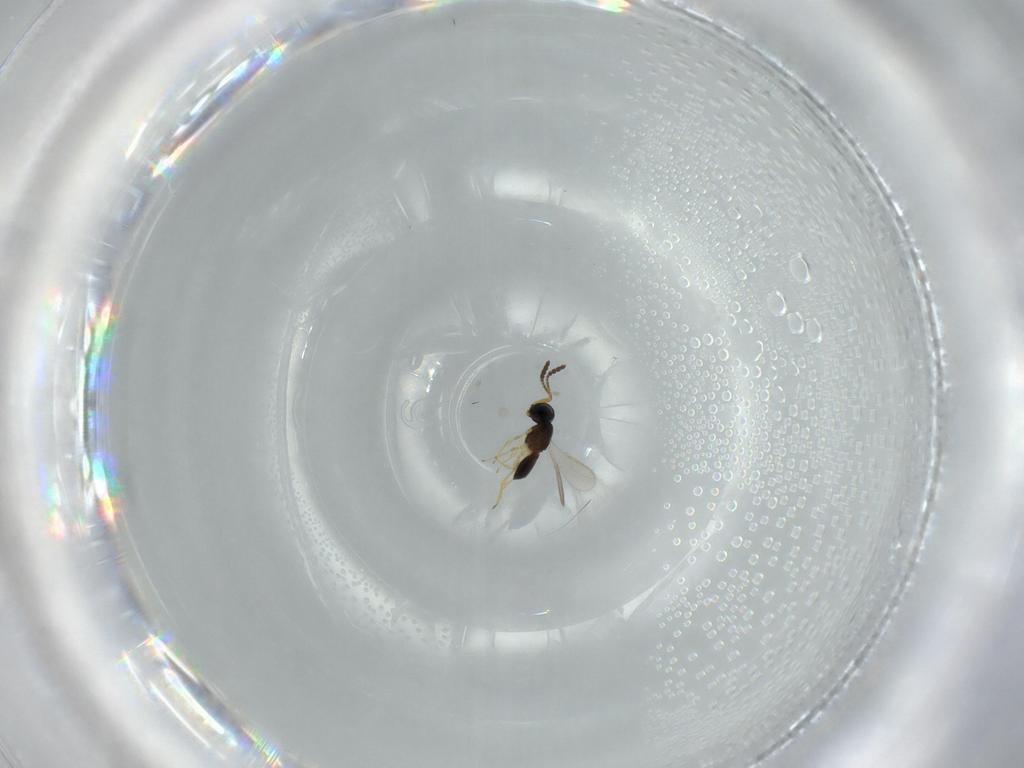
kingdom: Animalia
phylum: Arthropoda
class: Insecta
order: Hymenoptera
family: Scelionidae
